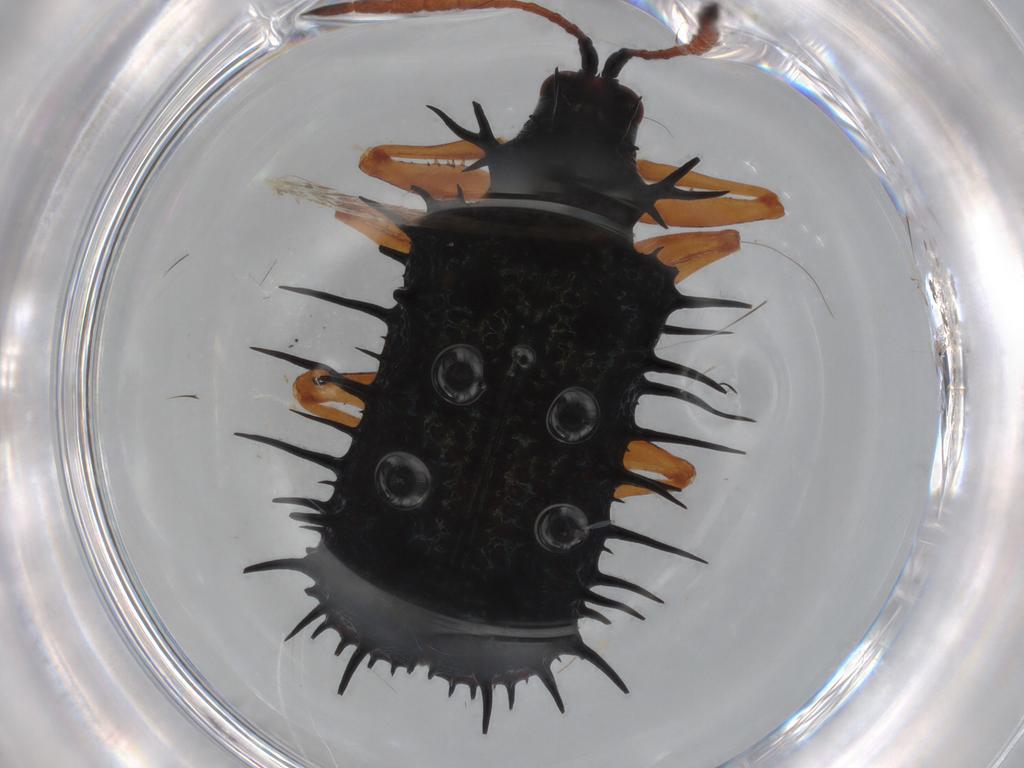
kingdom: Animalia
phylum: Arthropoda
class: Insecta
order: Coleoptera
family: Chrysomelidae
